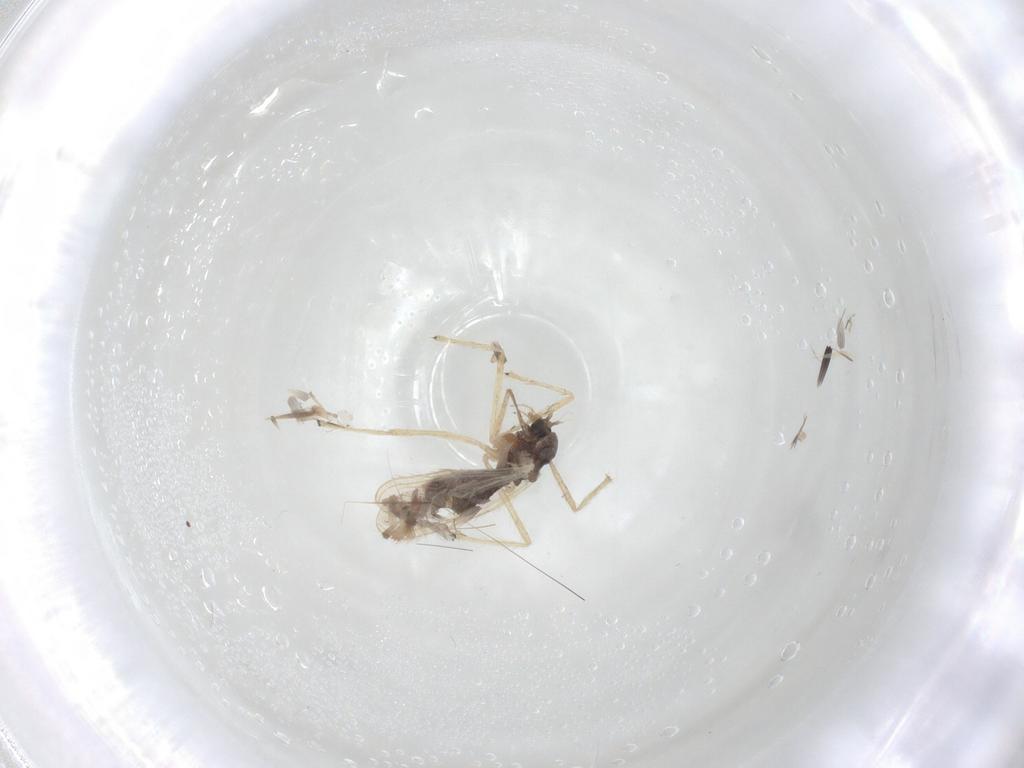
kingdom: Animalia
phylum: Arthropoda
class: Insecta
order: Diptera
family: Chironomidae
